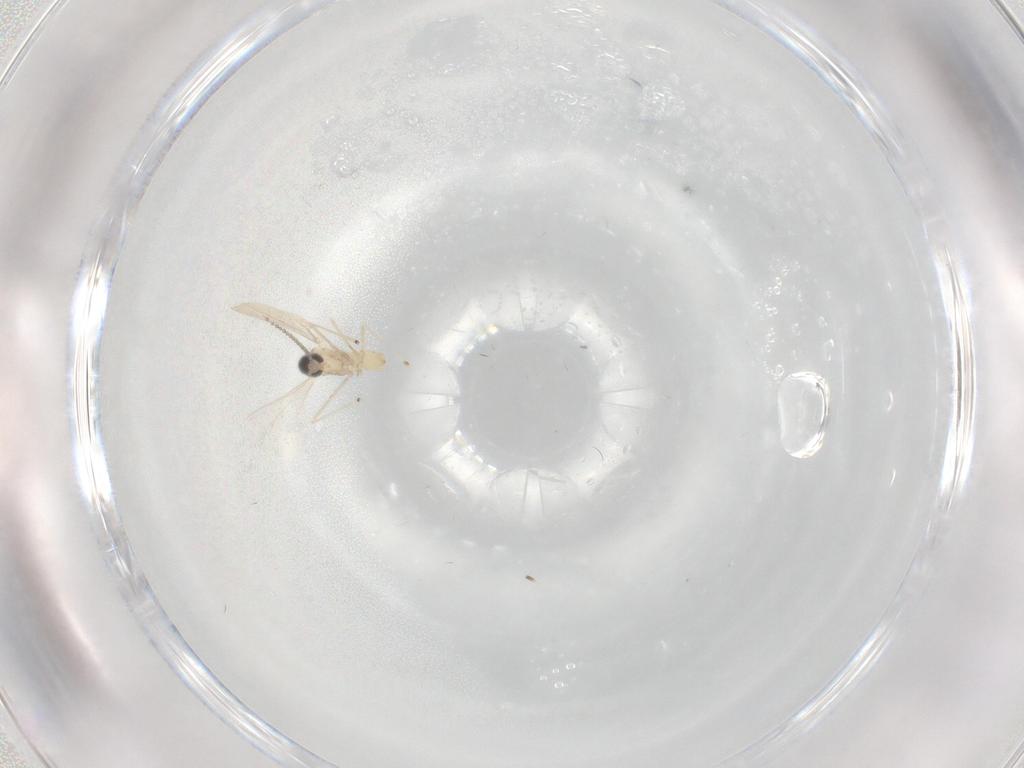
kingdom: Animalia
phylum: Arthropoda
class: Insecta
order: Diptera
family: Cecidomyiidae
